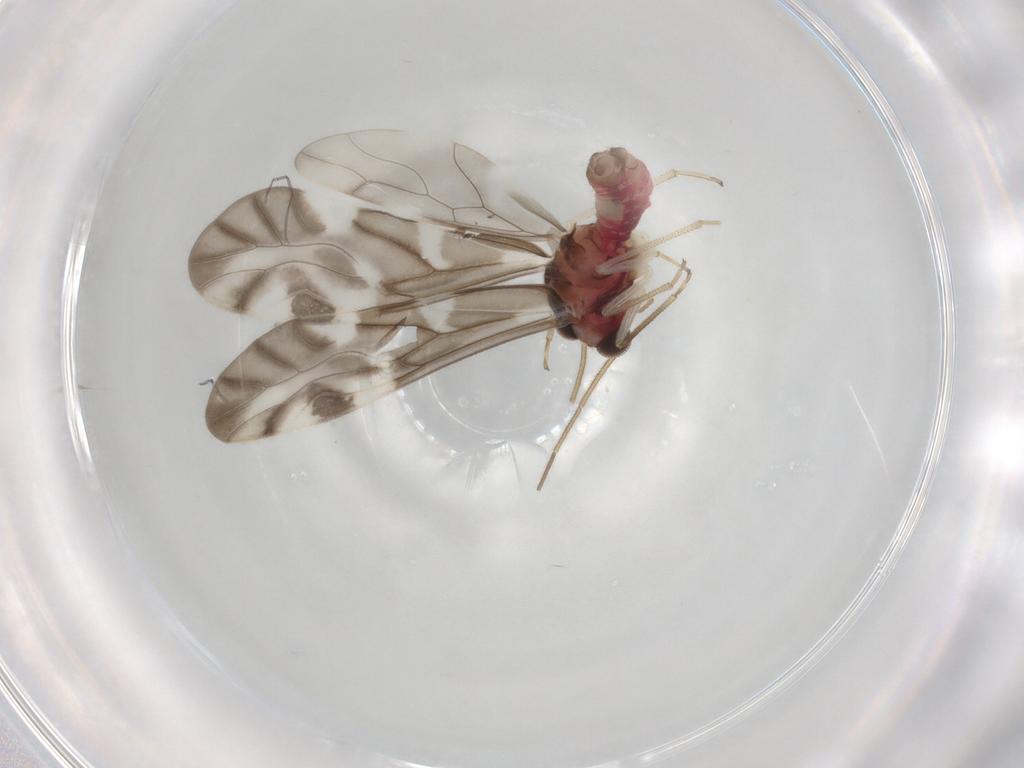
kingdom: Animalia
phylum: Arthropoda
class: Insecta
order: Psocodea
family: Caeciliusidae
